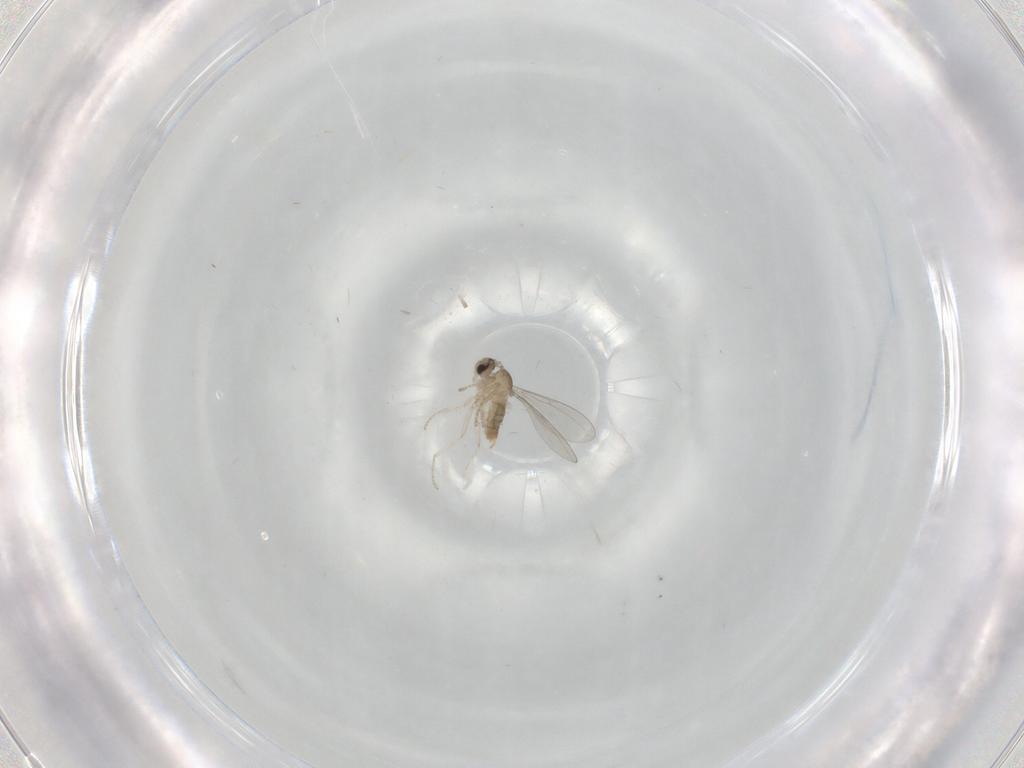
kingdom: Animalia
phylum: Arthropoda
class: Insecta
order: Diptera
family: Cecidomyiidae
